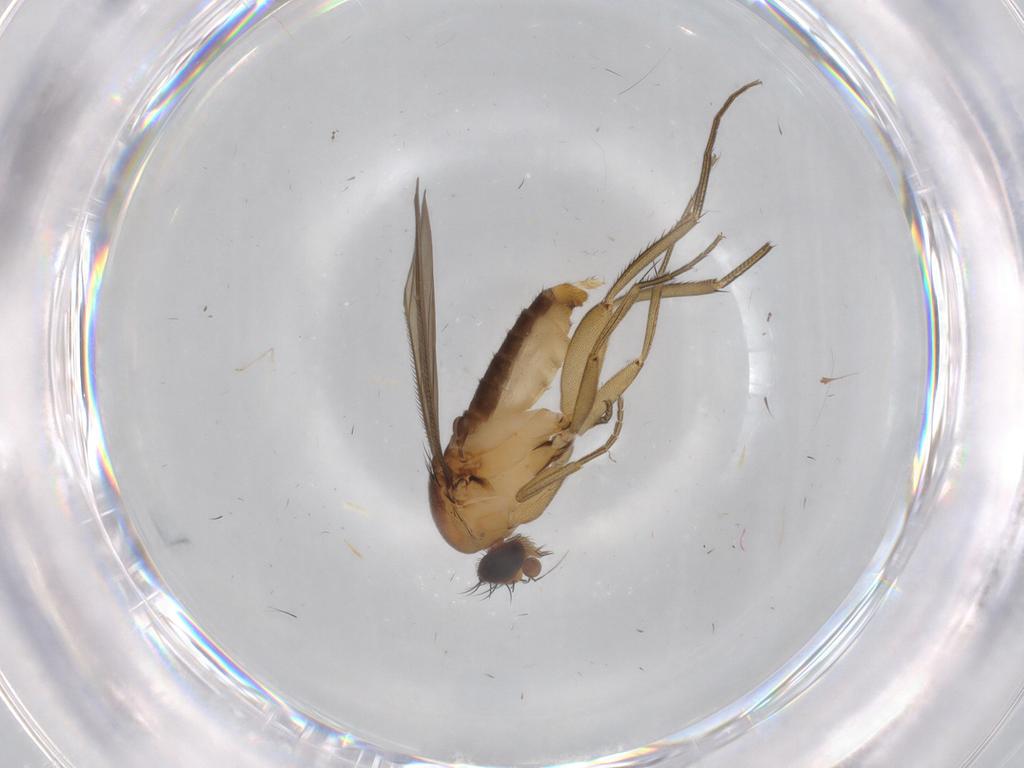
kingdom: Animalia
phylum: Arthropoda
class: Insecta
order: Diptera
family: Phoridae
